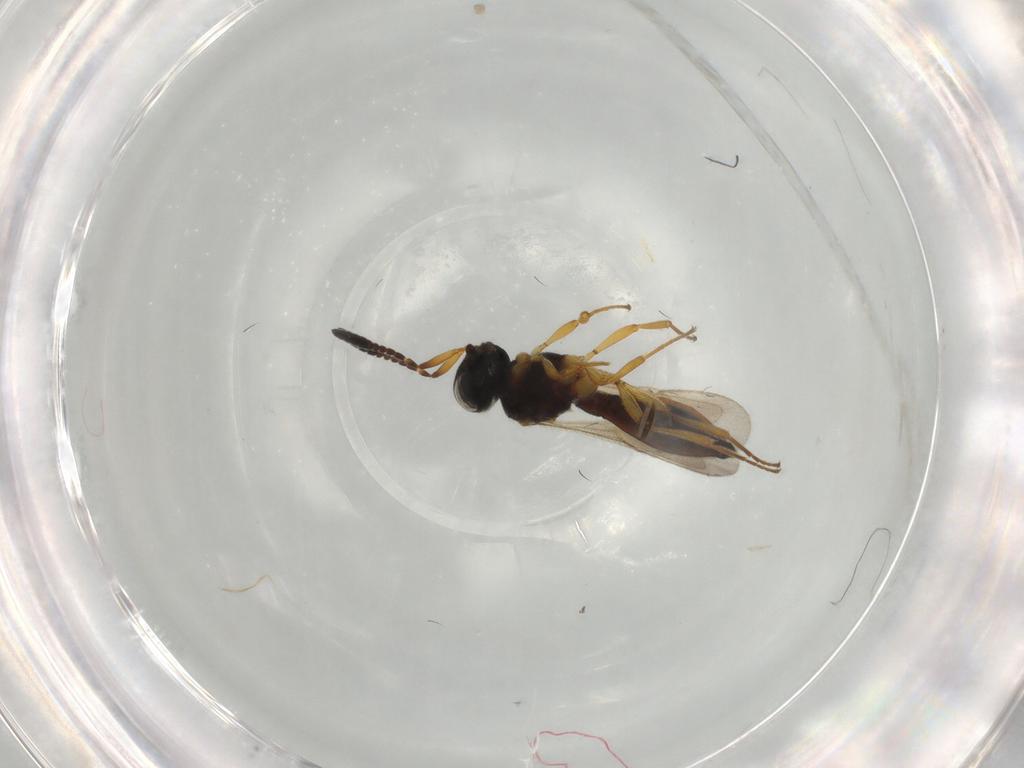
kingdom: Animalia
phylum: Arthropoda
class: Insecta
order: Hymenoptera
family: Scelionidae
